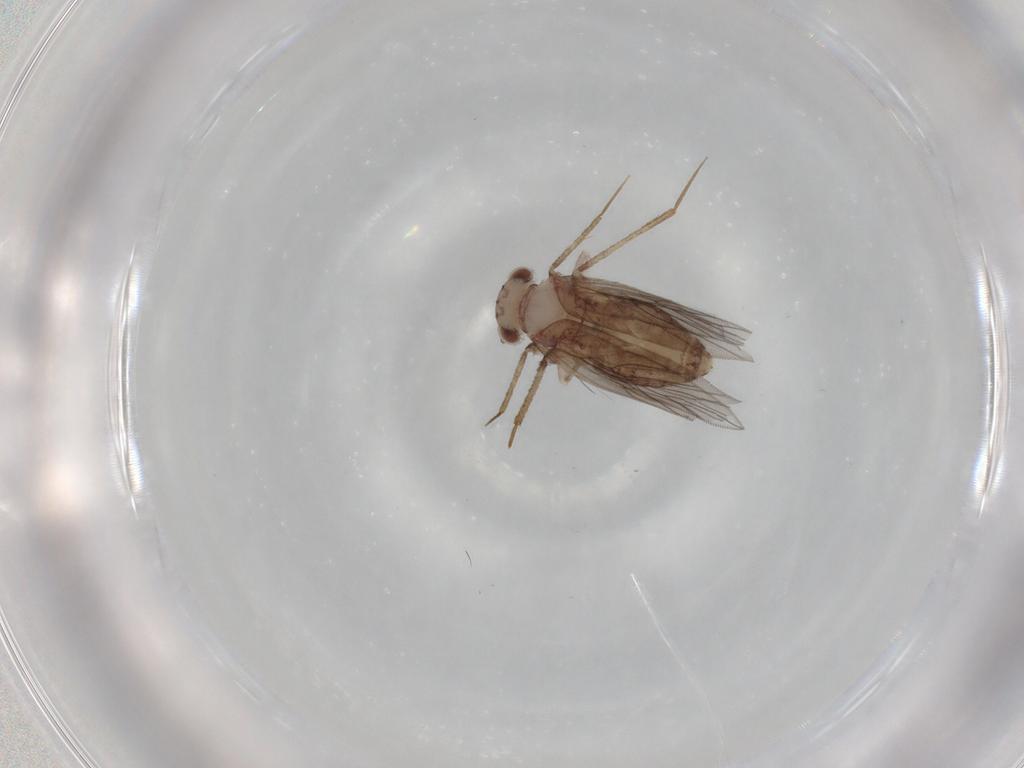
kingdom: Animalia
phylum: Arthropoda
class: Insecta
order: Psocodea
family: Lepidopsocidae
